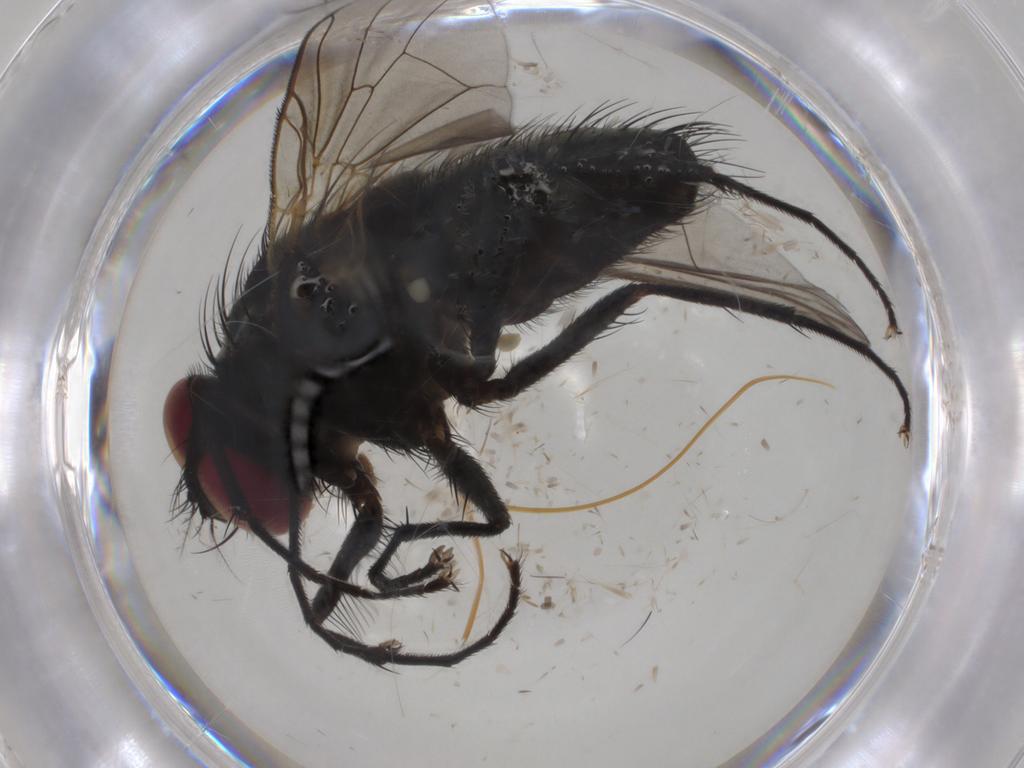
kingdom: Animalia
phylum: Arthropoda
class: Insecta
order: Diptera
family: Muscidae
